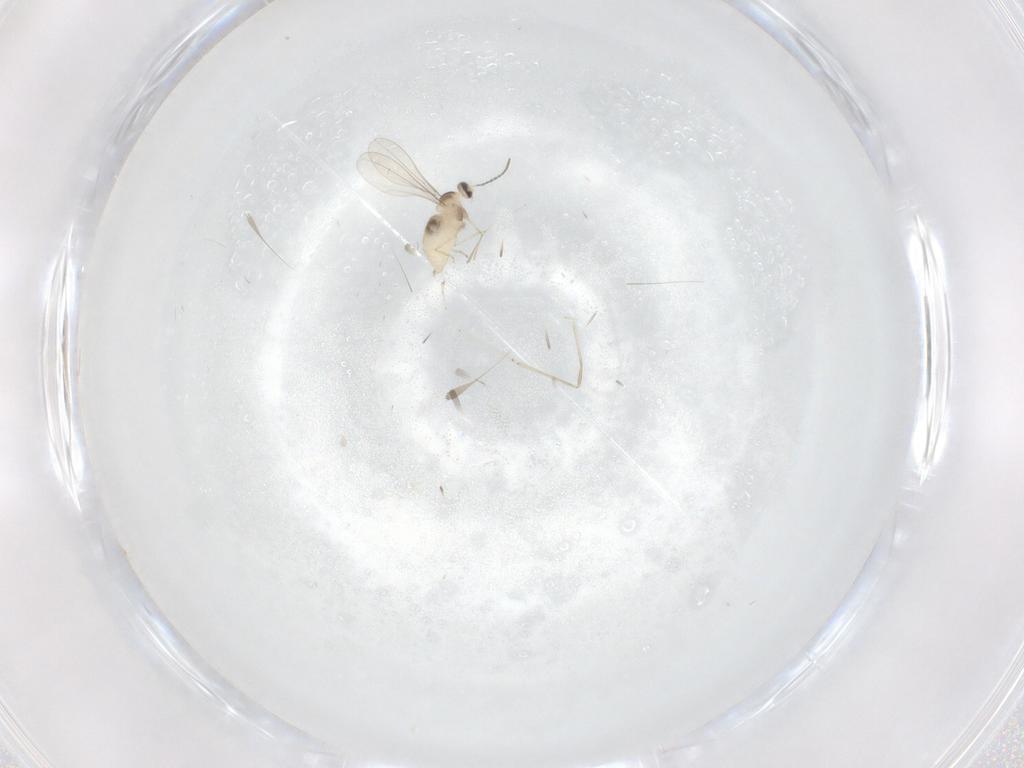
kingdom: Animalia
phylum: Arthropoda
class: Insecta
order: Diptera
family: Cecidomyiidae
